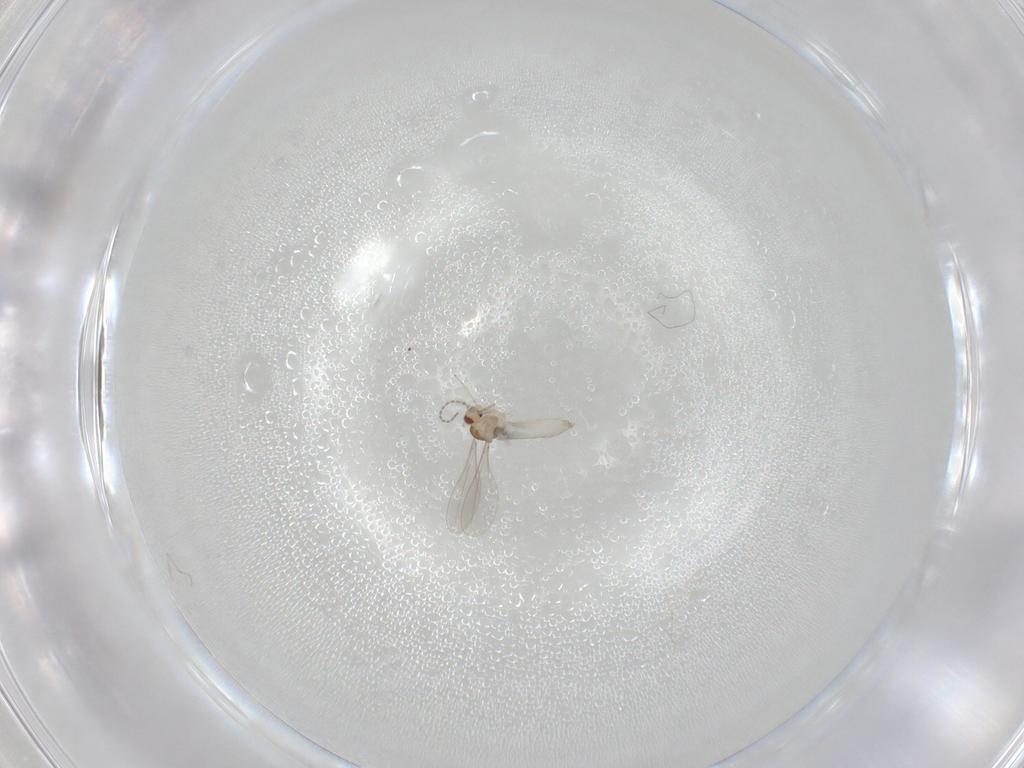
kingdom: Animalia
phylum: Arthropoda
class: Insecta
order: Diptera
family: Cecidomyiidae
